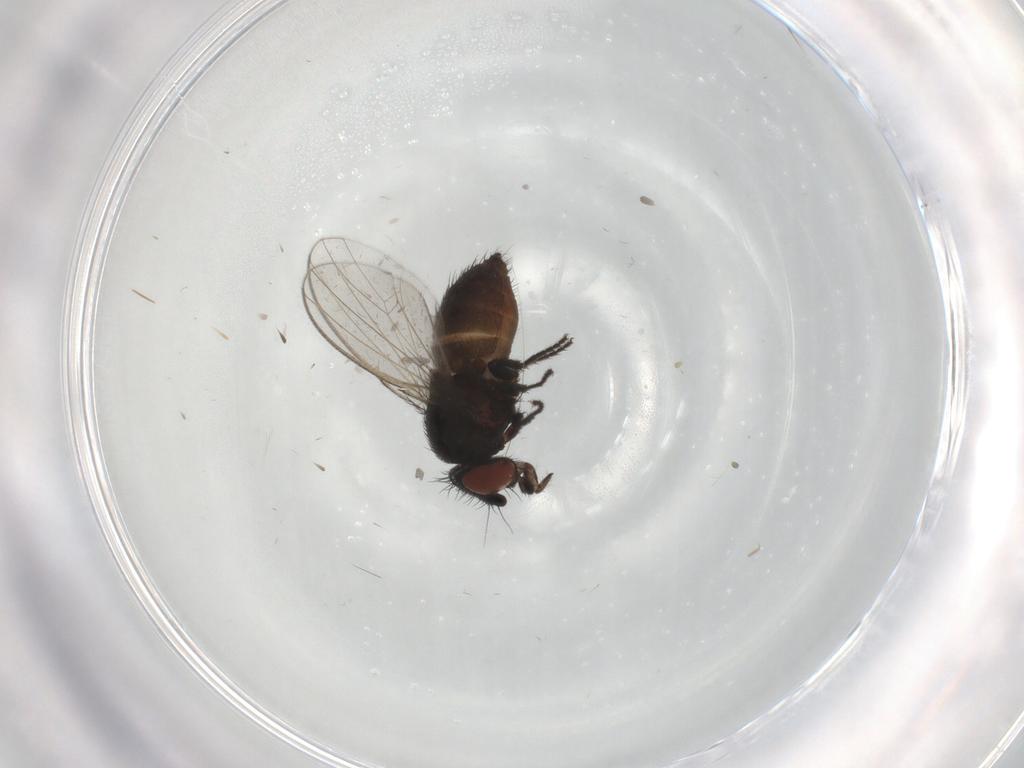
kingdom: Animalia
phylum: Arthropoda
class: Insecta
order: Diptera
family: Milichiidae
